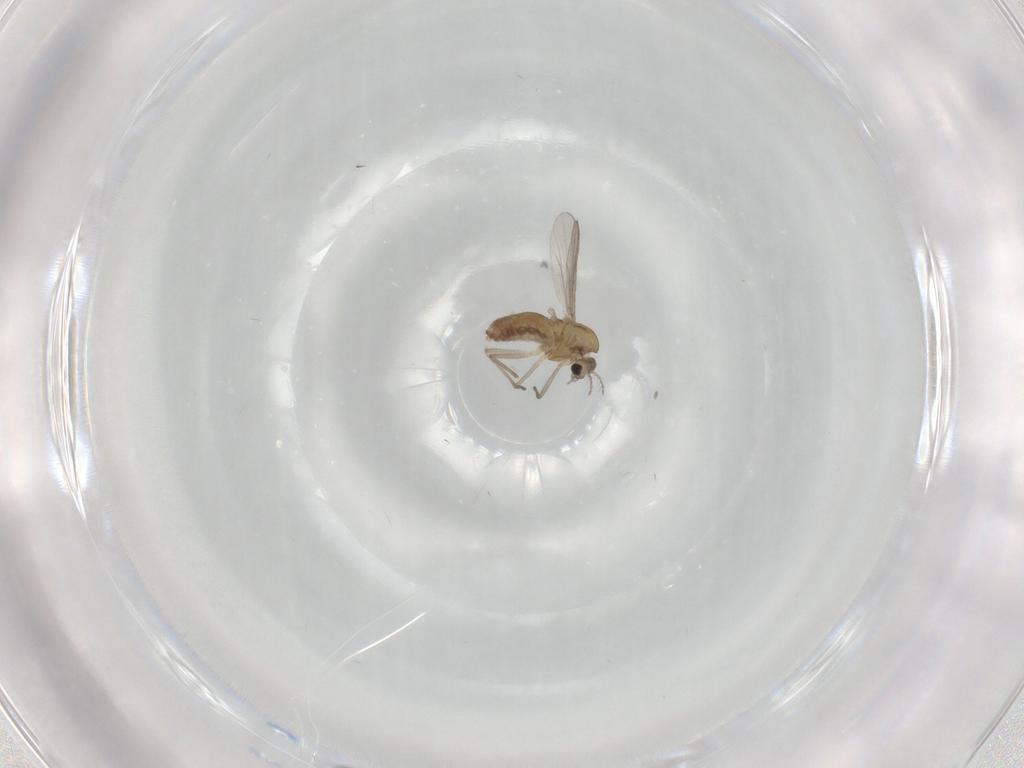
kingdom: Animalia
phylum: Arthropoda
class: Insecta
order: Diptera
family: Chironomidae
